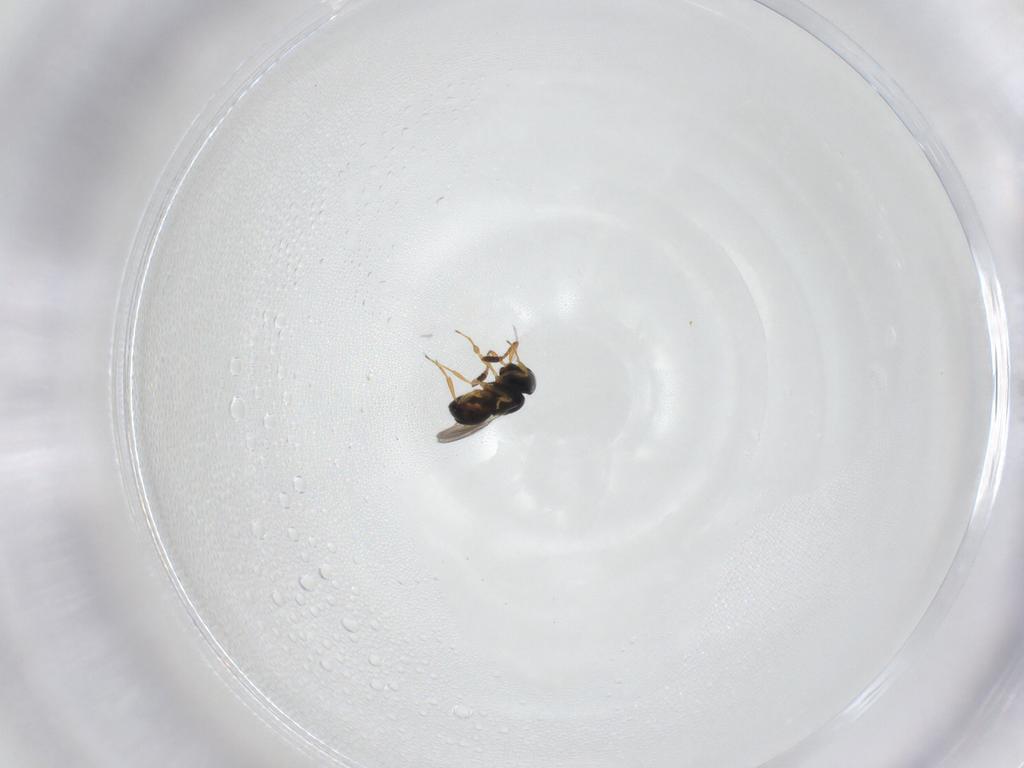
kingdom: Animalia
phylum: Arthropoda
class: Insecta
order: Hymenoptera
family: Scelionidae
